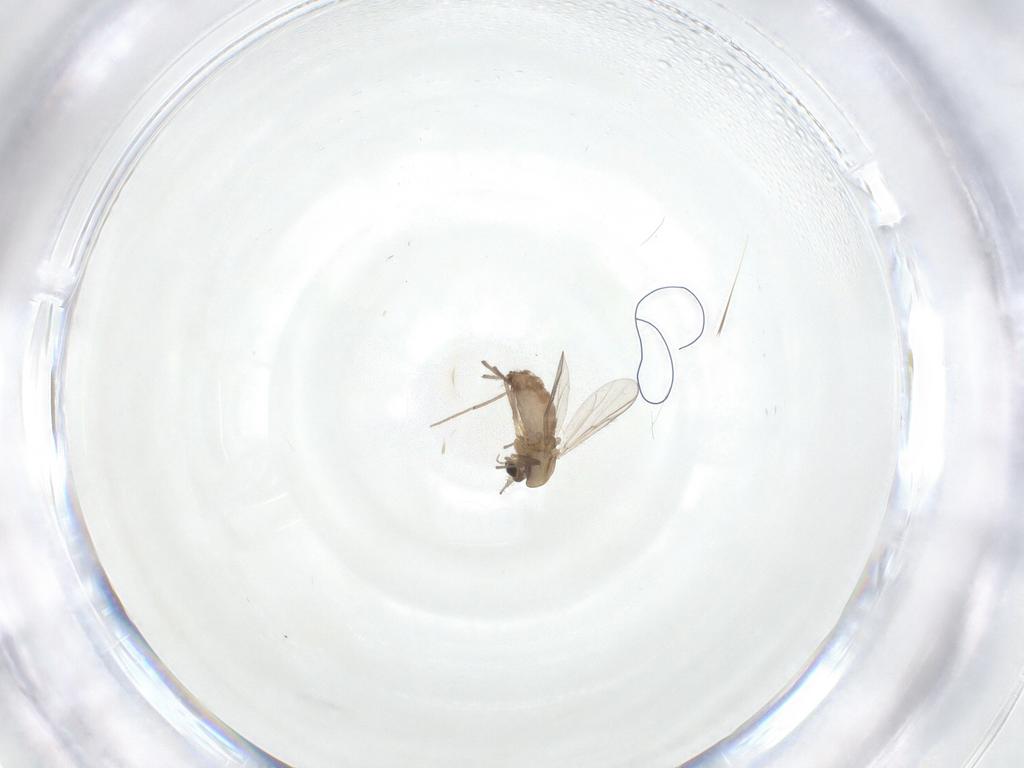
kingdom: Animalia
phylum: Arthropoda
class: Insecta
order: Diptera
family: Chironomidae
